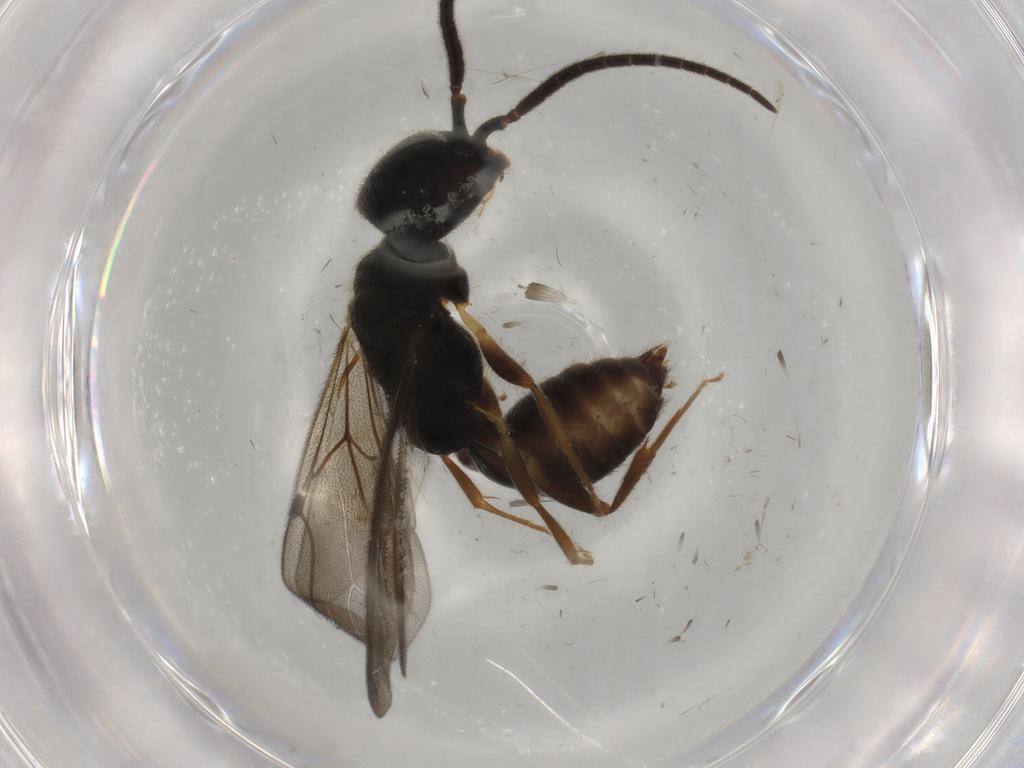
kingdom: Animalia
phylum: Arthropoda
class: Insecta
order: Hymenoptera
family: Bethylidae
